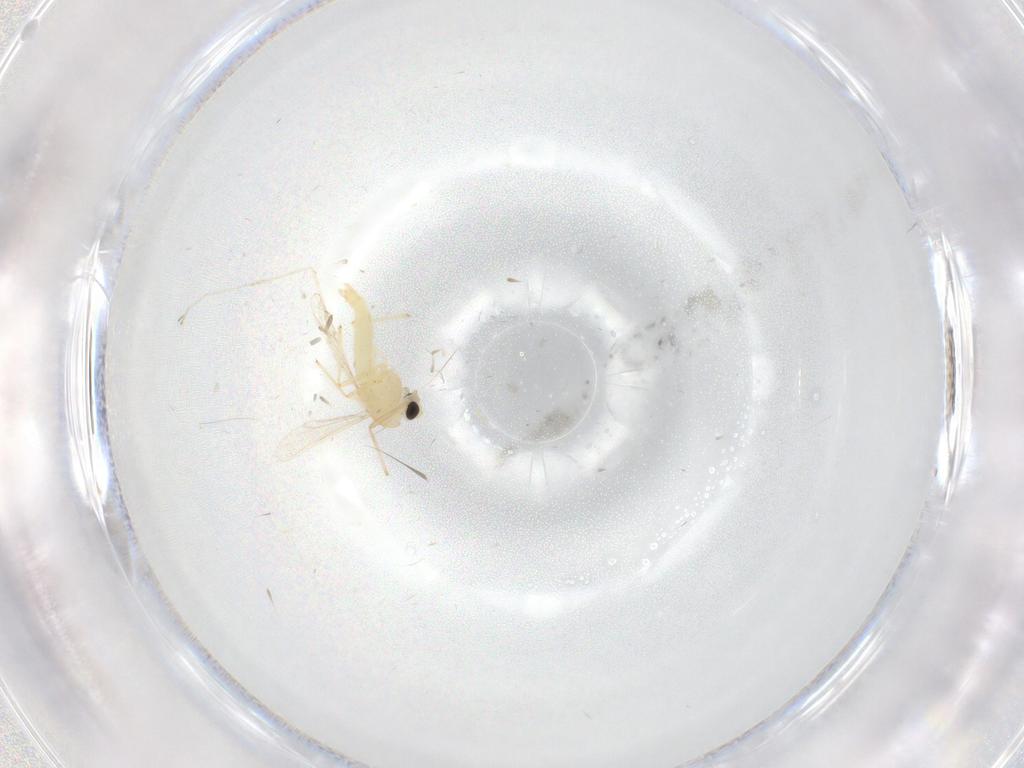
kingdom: Animalia
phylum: Arthropoda
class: Insecta
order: Diptera
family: Chironomidae
